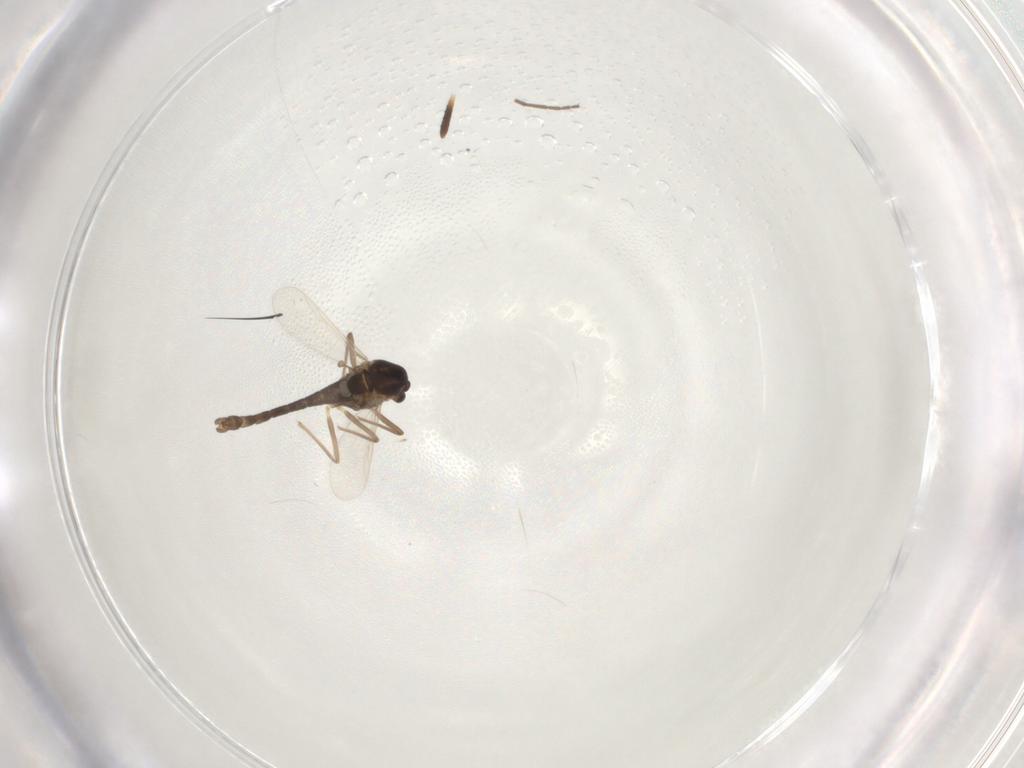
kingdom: Animalia
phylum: Arthropoda
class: Insecta
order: Diptera
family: Chironomidae
